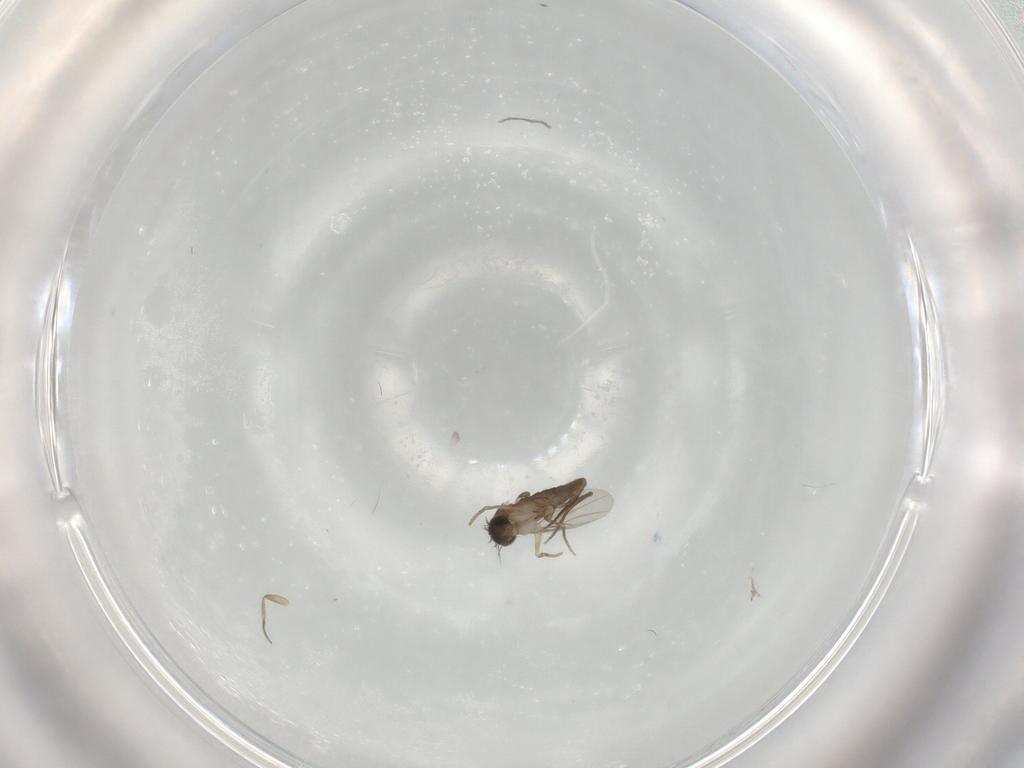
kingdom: Animalia
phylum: Arthropoda
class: Insecta
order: Diptera
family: Phoridae
